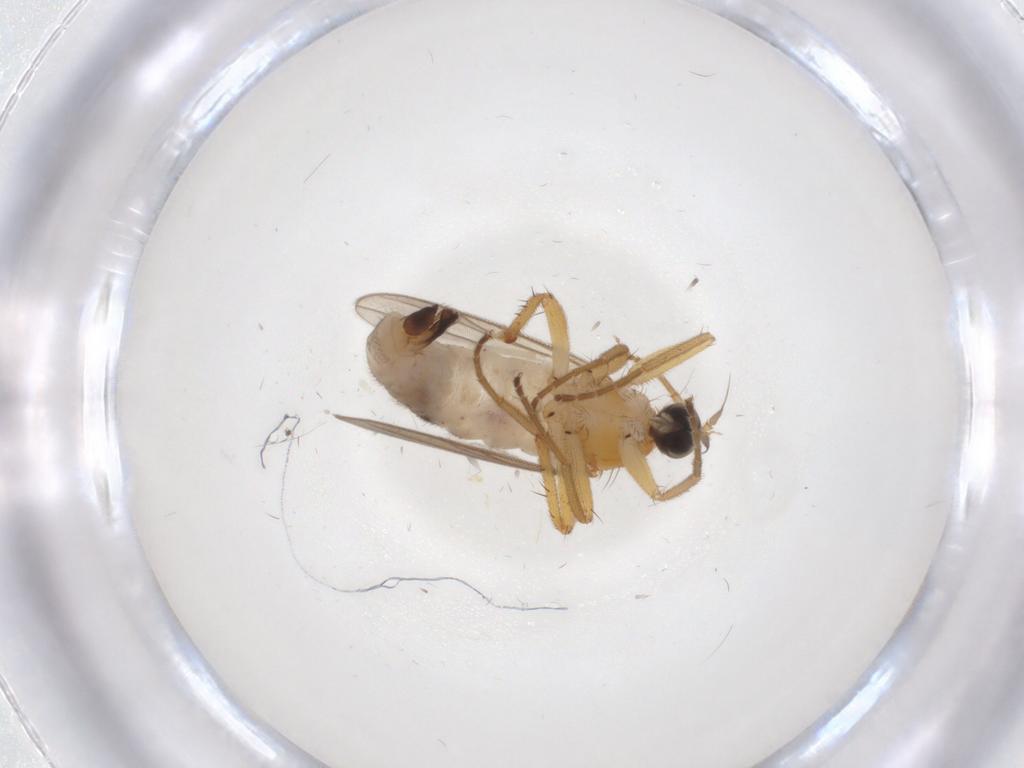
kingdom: Animalia
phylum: Arthropoda
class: Insecta
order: Diptera
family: Hybotidae
